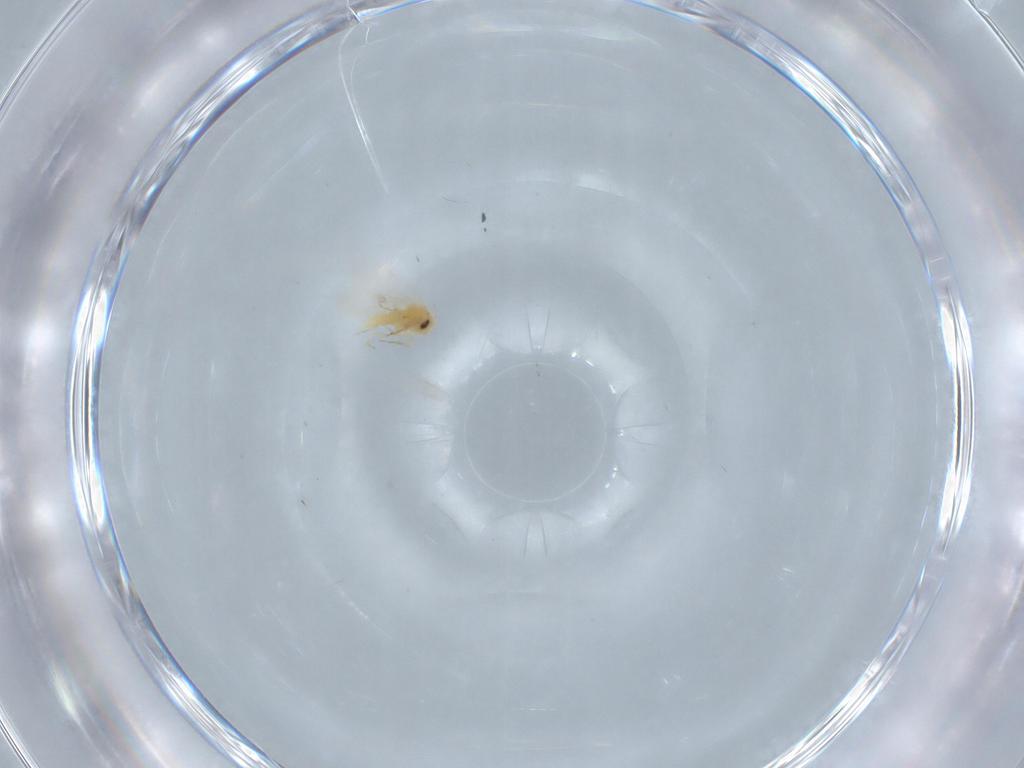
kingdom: Animalia
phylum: Arthropoda
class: Insecta
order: Hemiptera
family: Aleyrodidae
